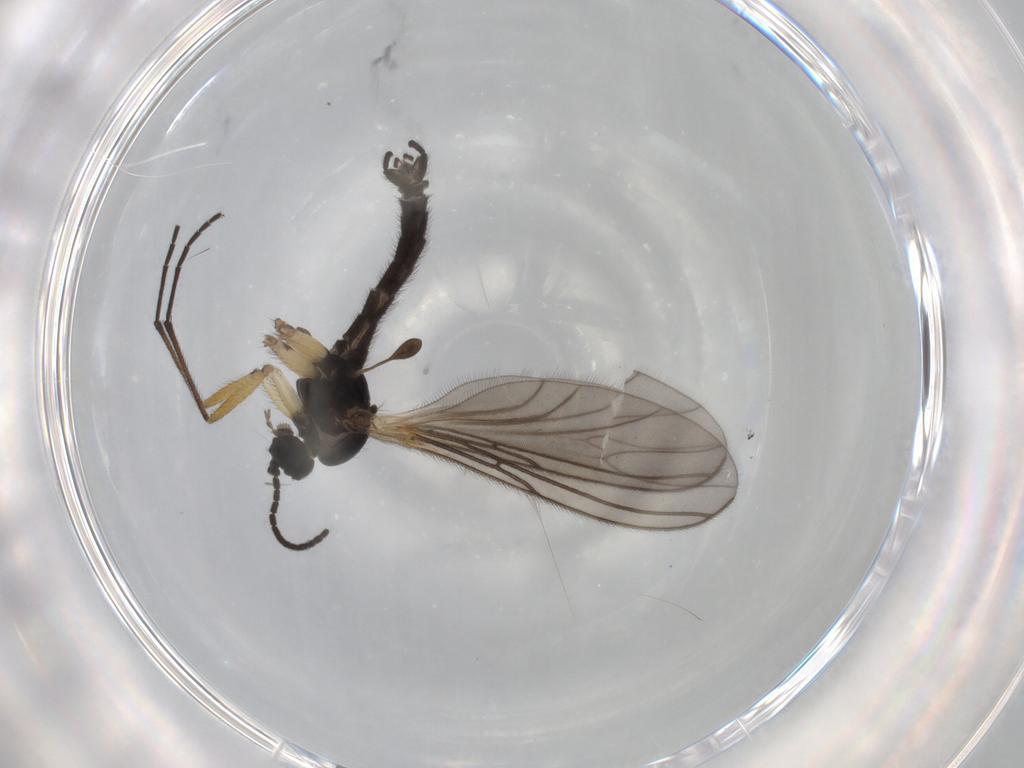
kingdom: Animalia
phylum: Arthropoda
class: Insecta
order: Diptera
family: Sciaridae
